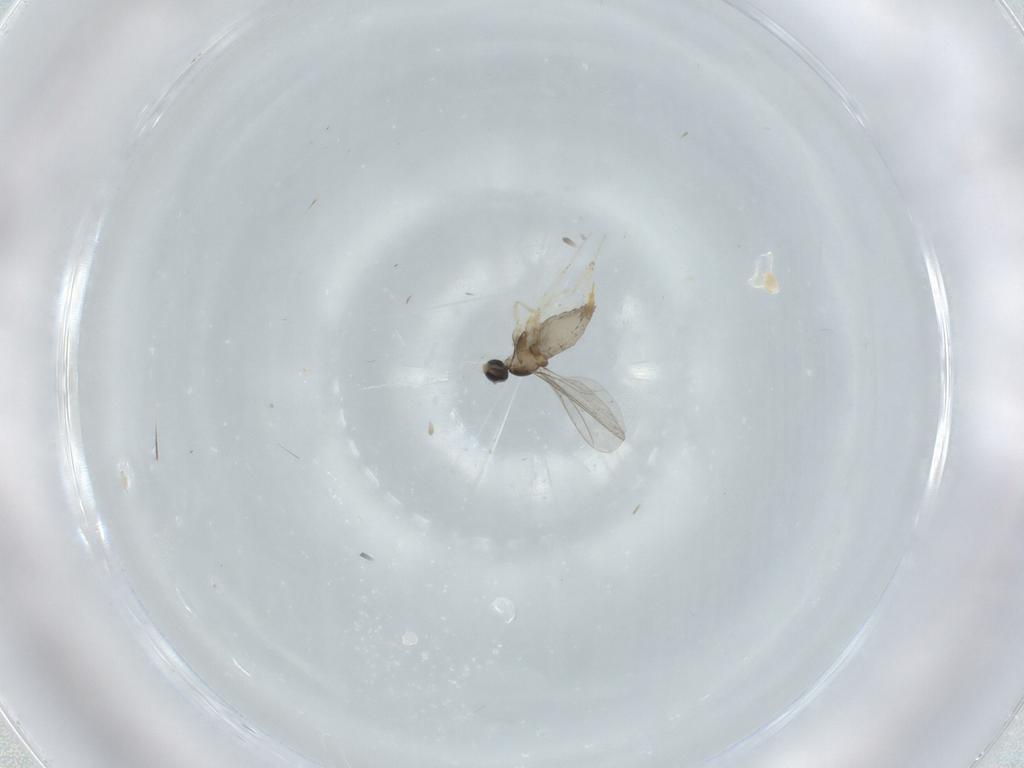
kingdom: Animalia
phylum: Arthropoda
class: Insecta
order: Diptera
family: Cecidomyiidae
